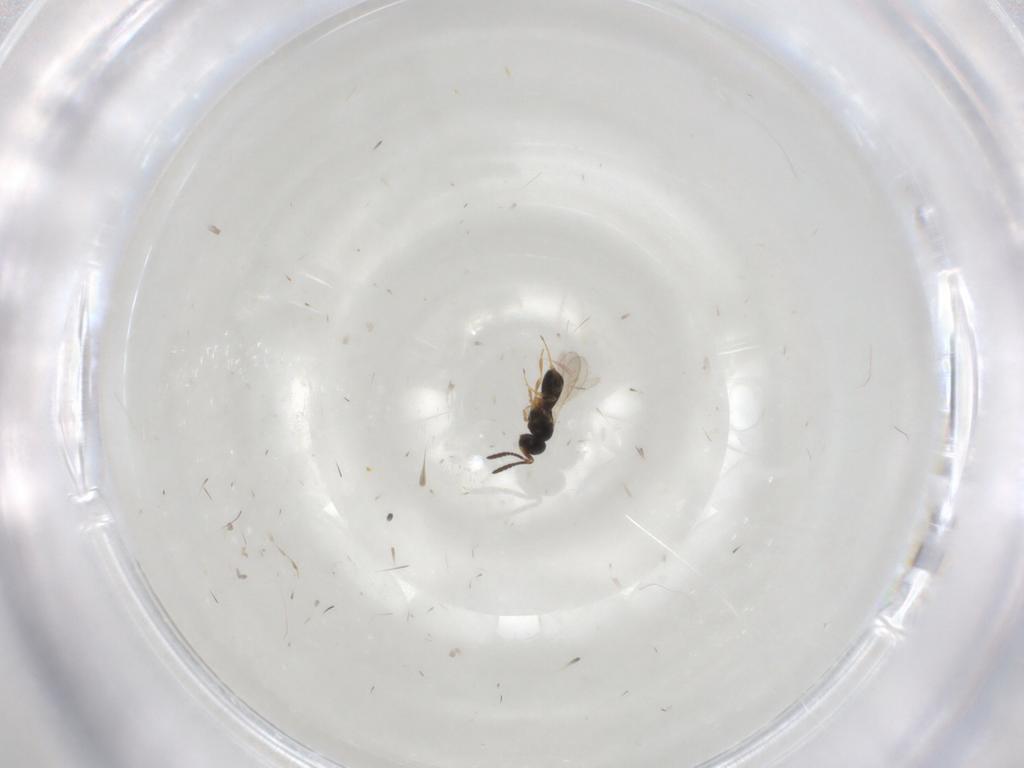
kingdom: Animalia
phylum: Arthropoda
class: Insecta
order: Hymenoptera
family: Scelionidae
